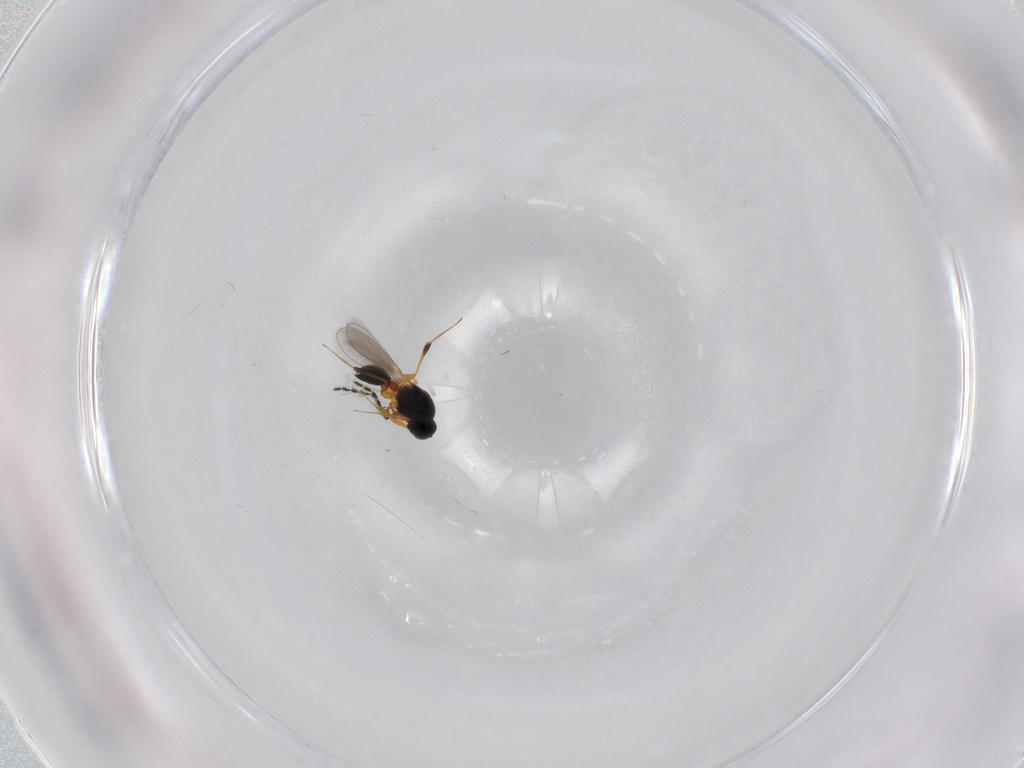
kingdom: Animalia
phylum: Arthropoda
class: Insecta
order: Hymenoptera
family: Platygastridae
